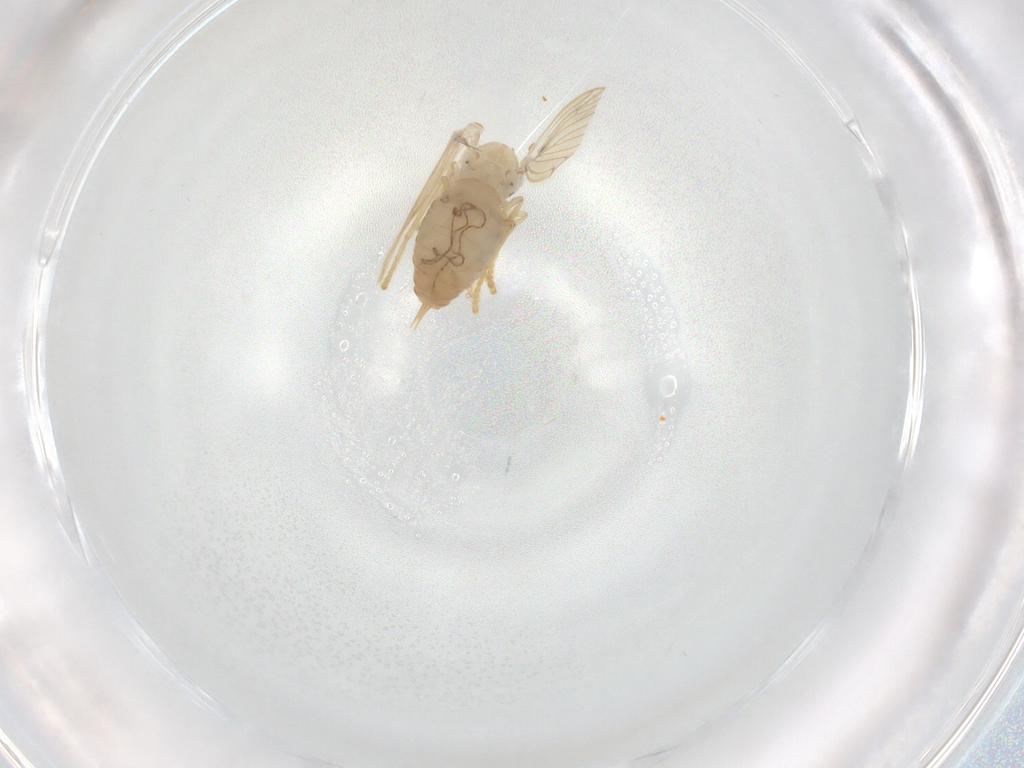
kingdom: Animalia
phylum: Arthropoda
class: Insecta
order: Diptera
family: Psychodidae
